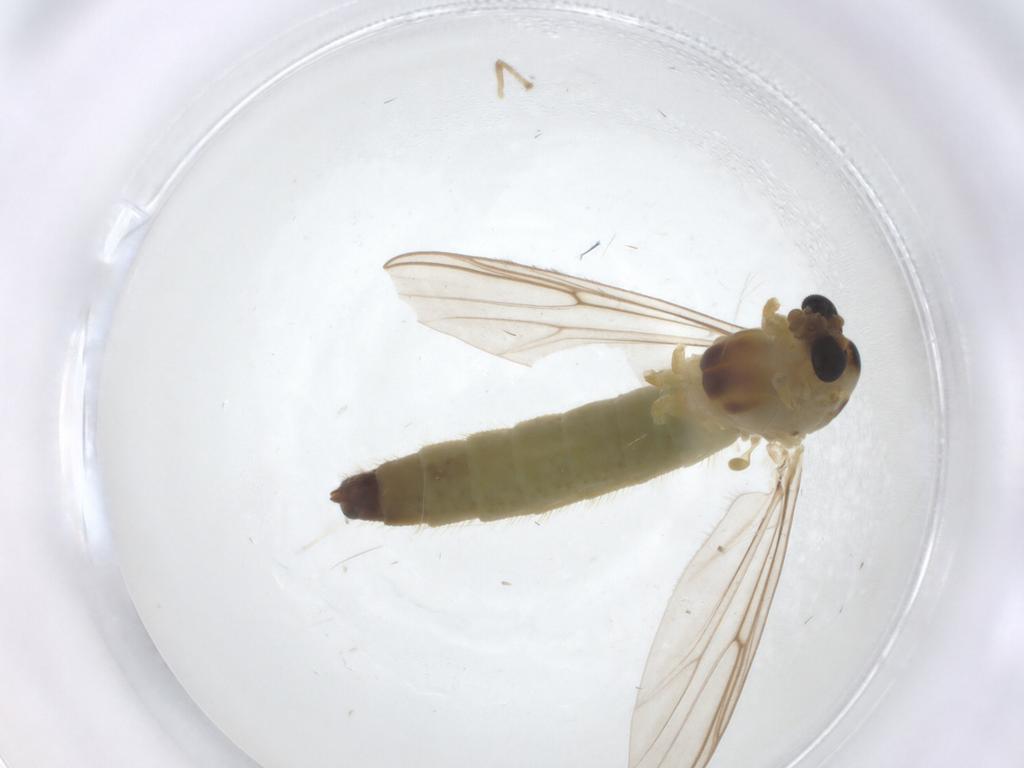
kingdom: Animalia
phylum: Arthropoda
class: Insecta
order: Diptera
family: Chironomidae
